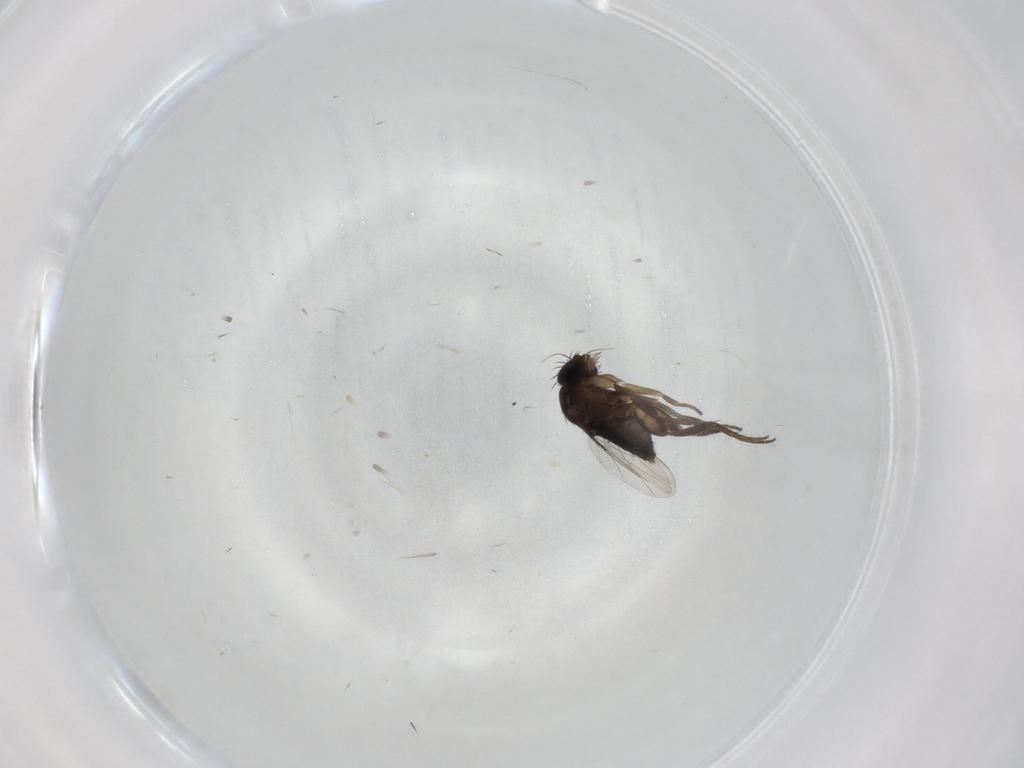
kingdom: Animalia
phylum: Arthropoda
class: Insecta
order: Diptera
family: Phoridae
